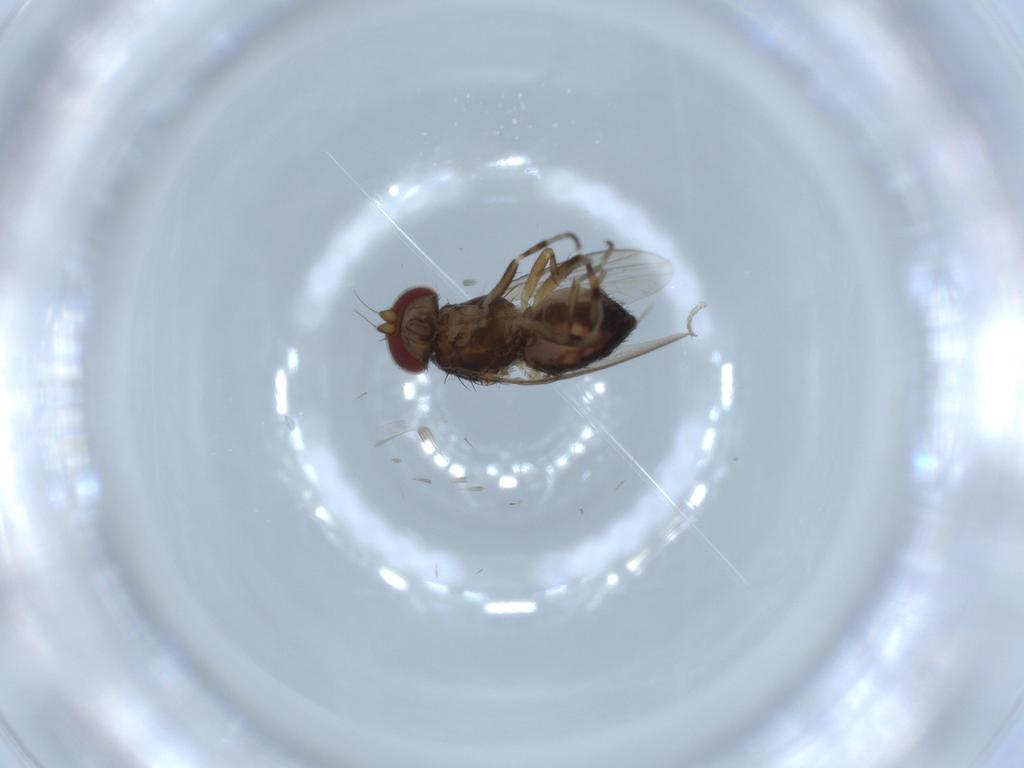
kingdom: Animalia
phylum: Arthropoda
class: Insecta
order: Diptera
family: Heleomyzidae
